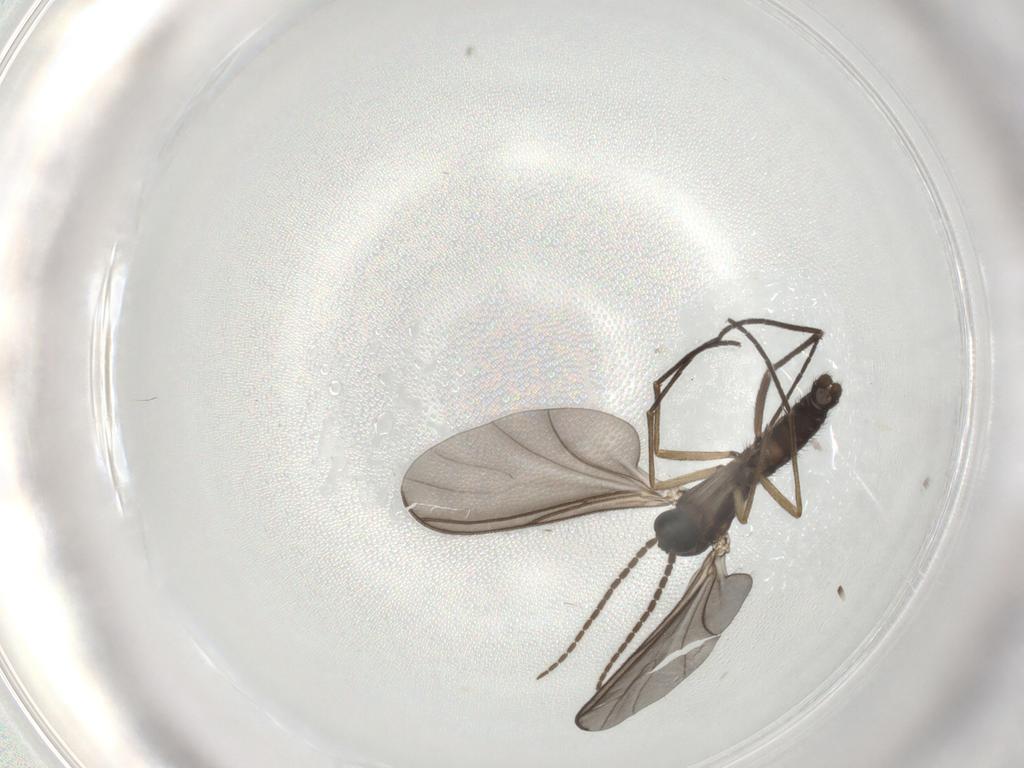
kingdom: Animalia
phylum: Arthropoda
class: Insecta
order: Diptera
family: Sciaridae
